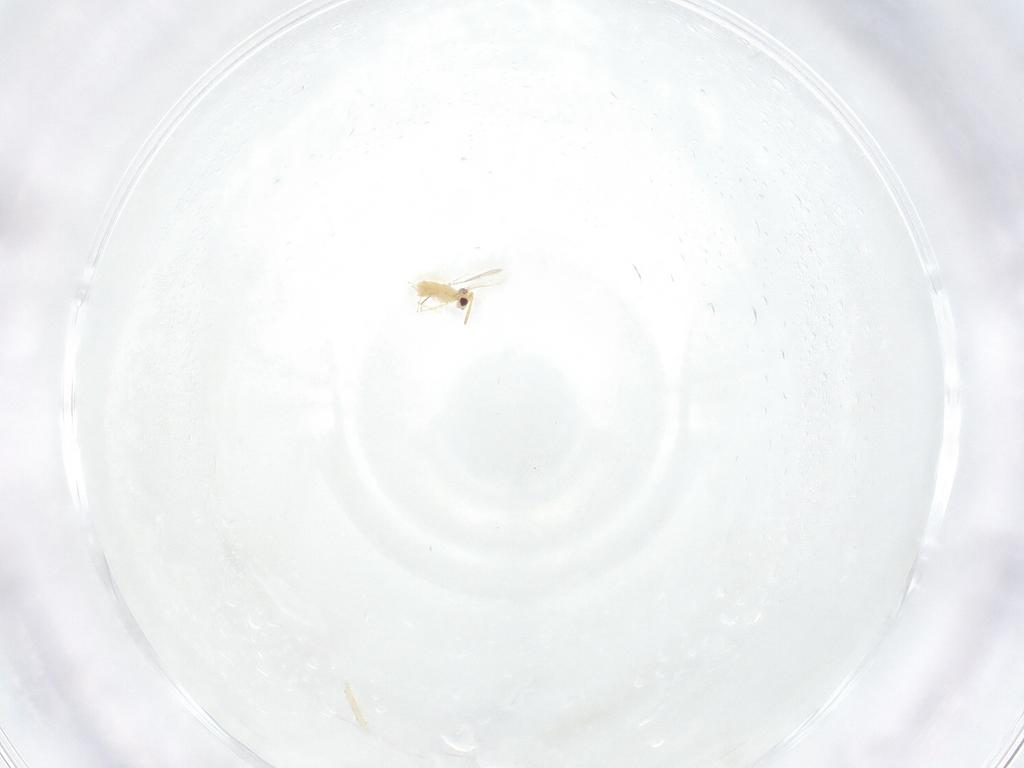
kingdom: Animalia
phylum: Arthropoda
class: Insecta
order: Hymenoptera
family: Aphelinidae
